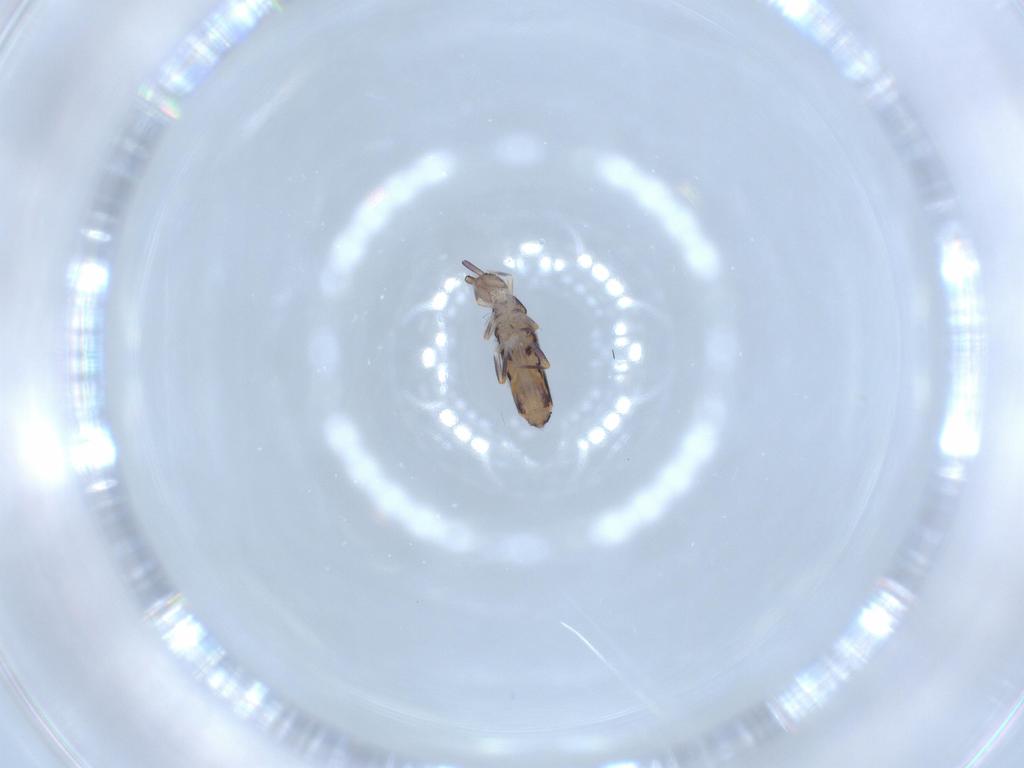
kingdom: Animalia
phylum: Arthropoda
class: Collembola
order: Entomobryomorpha
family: Entomobryidae
